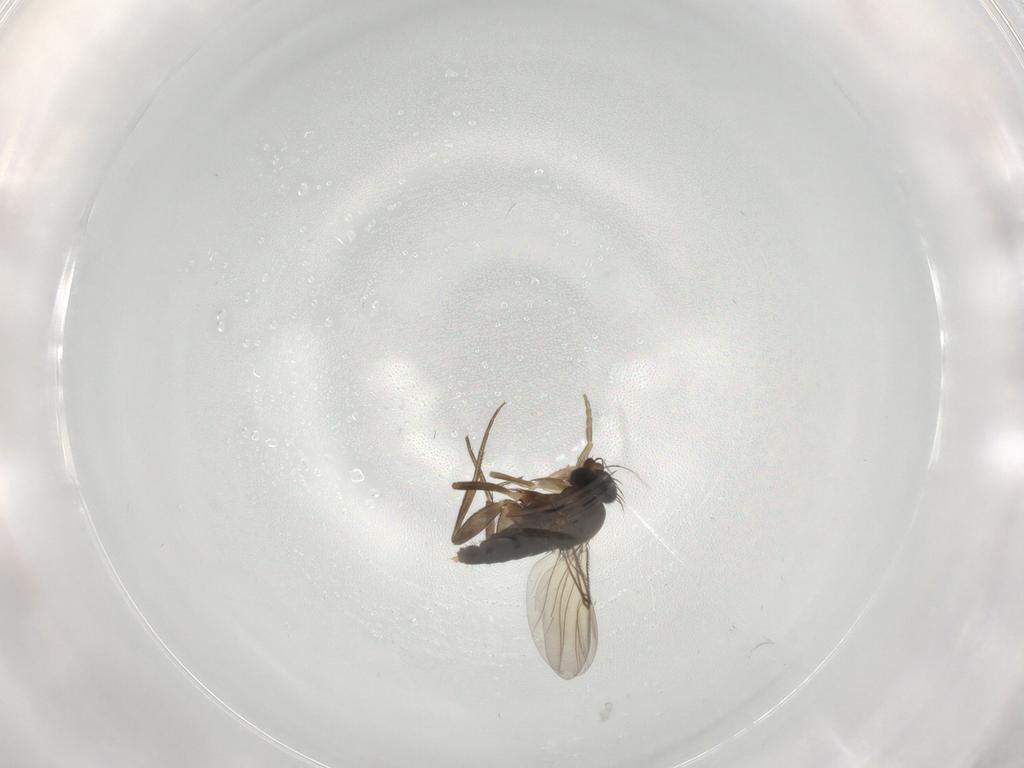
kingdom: Animalia
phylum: Arthropoda
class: Insecta
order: Diptera
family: Phoridae
